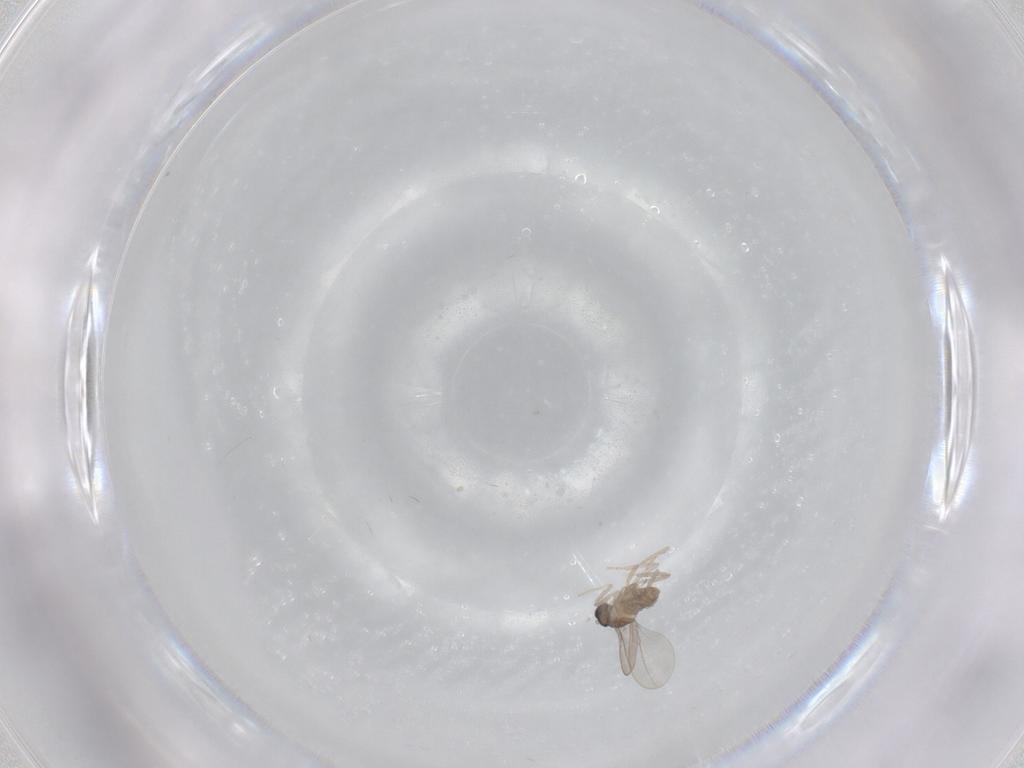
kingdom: Animalia
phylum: Arthropoda
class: Insecta
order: Diptera
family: Cecidomyiidae
